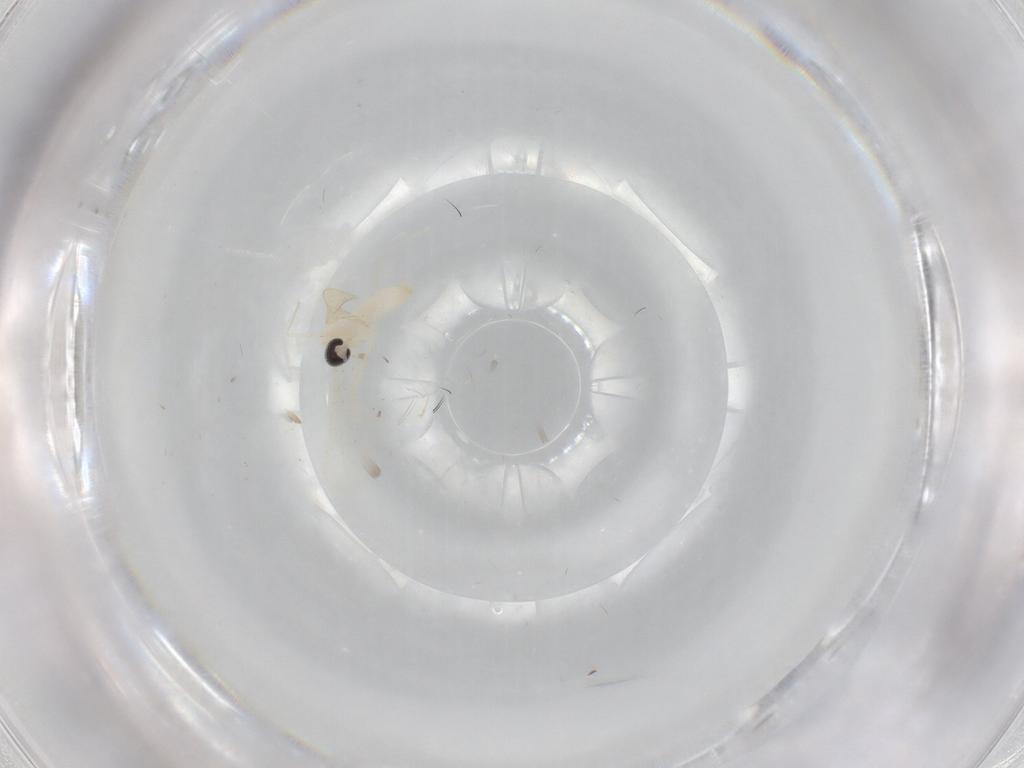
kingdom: Animalia
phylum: Arthropoda
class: Insecta
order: Diptera
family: Cecidomyiidae
